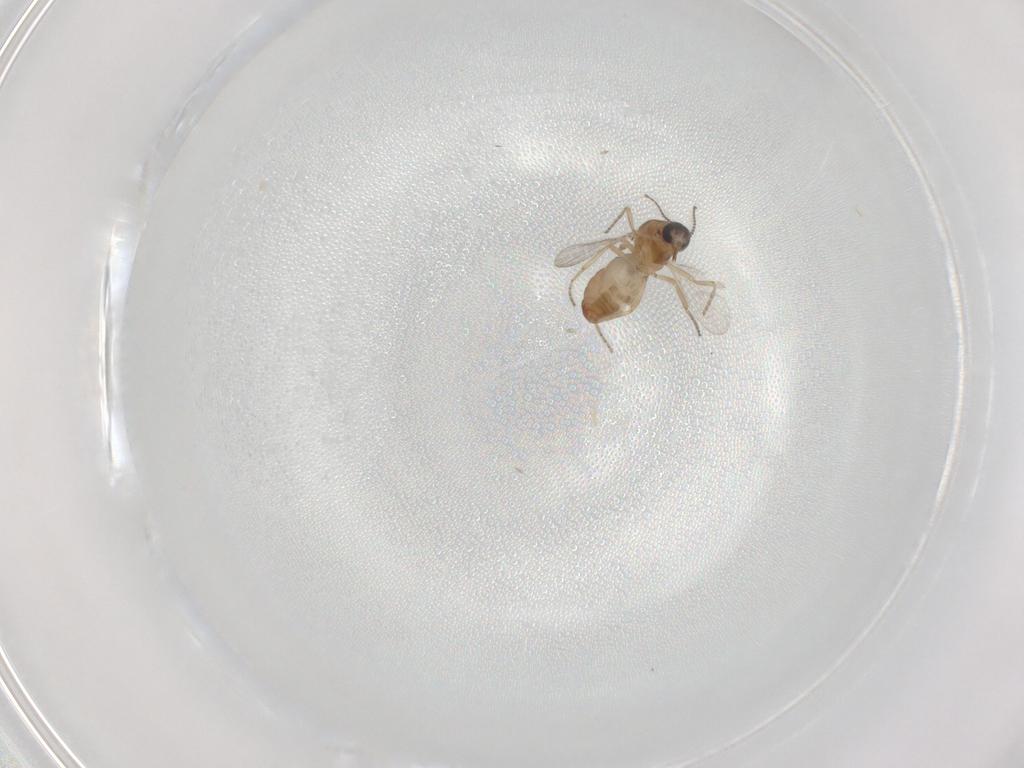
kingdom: Animalia
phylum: Arthropoda
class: Insecta
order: Diptera
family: Ceratopogonidae
